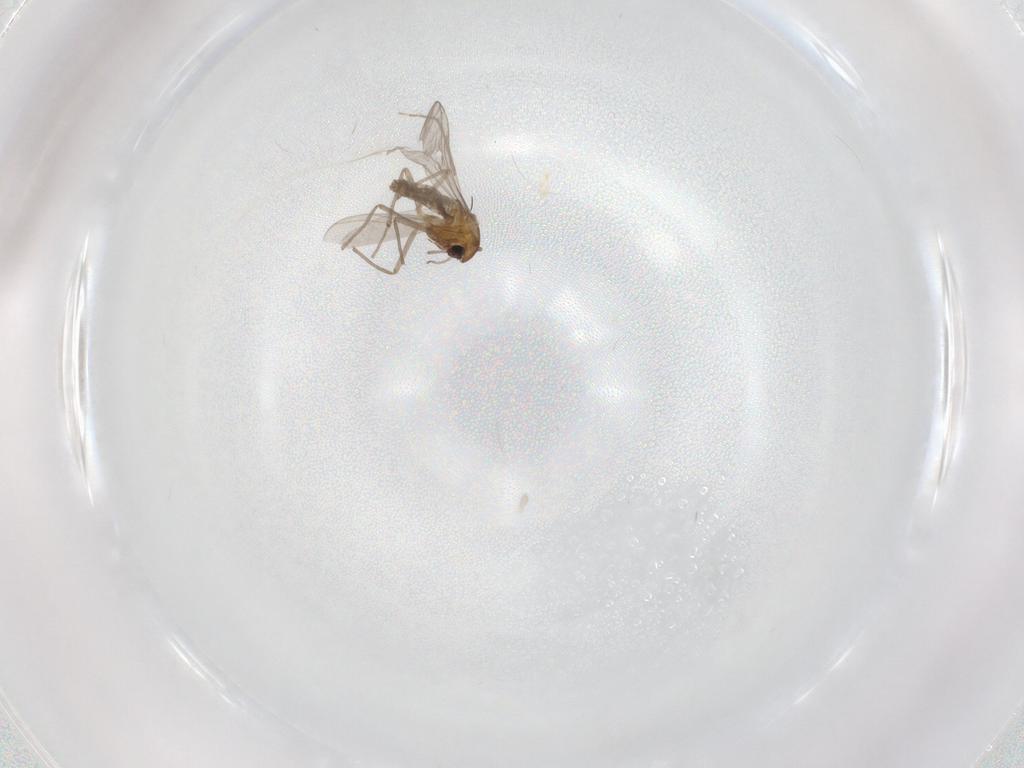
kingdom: Animalia
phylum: Arthropoda
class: Insecta
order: Diptera
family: Chironomidae
